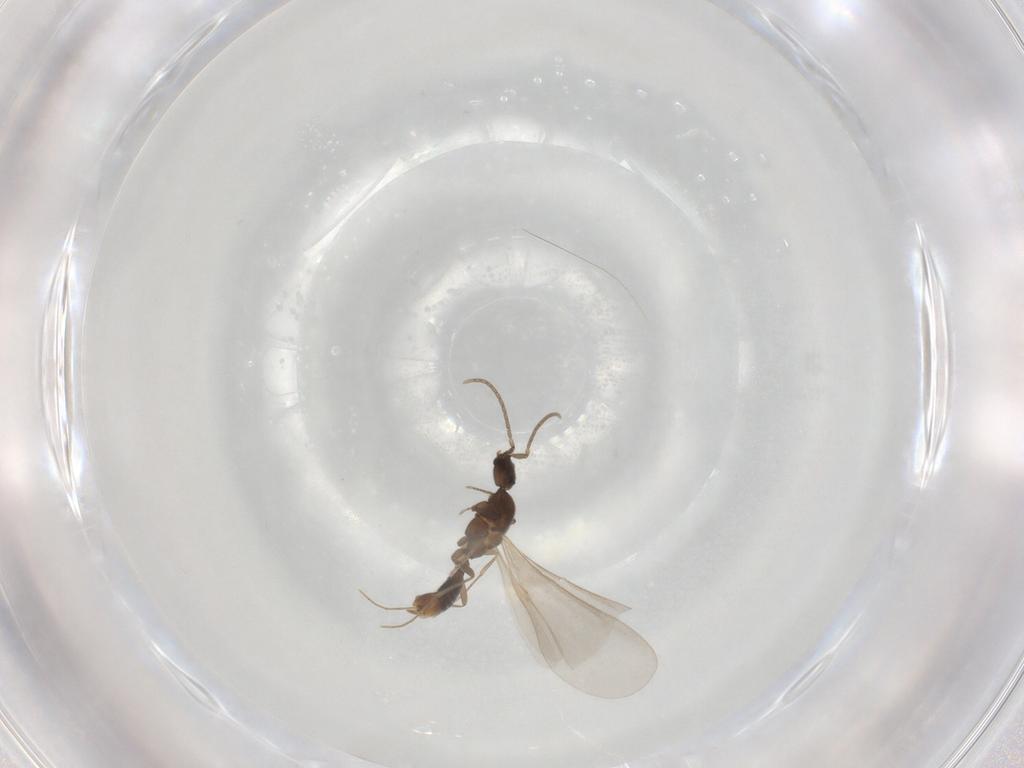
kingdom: Animalia
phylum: Arthropoda
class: Insecta
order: Hymenoptera
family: Formicidae
